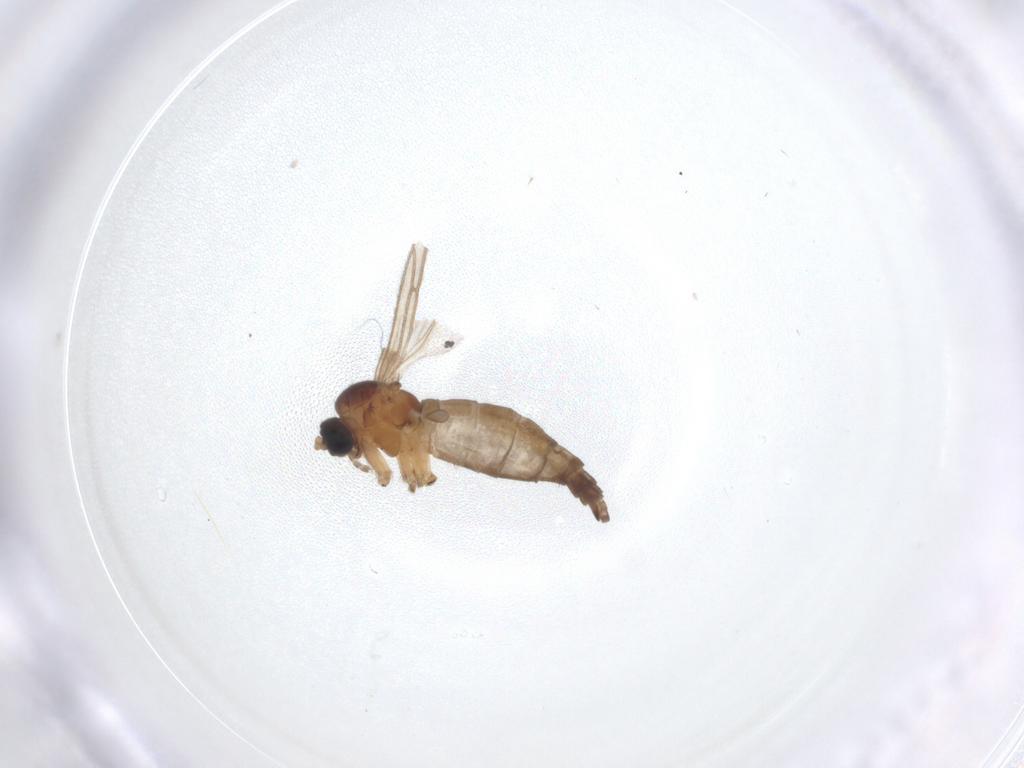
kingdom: Animalia
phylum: Arthropoda
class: Insecta
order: Diptera
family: Sciaridae
